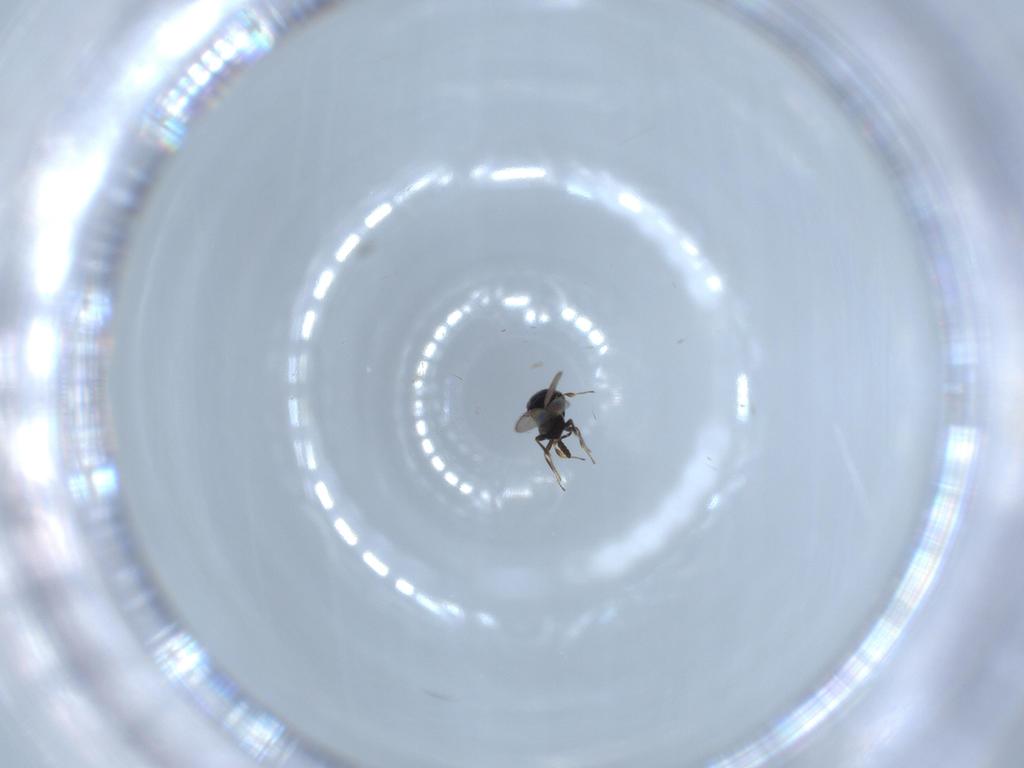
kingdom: Animalia
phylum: Arthropoda
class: Insecta
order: Hymenoptera
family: Scelionidae
